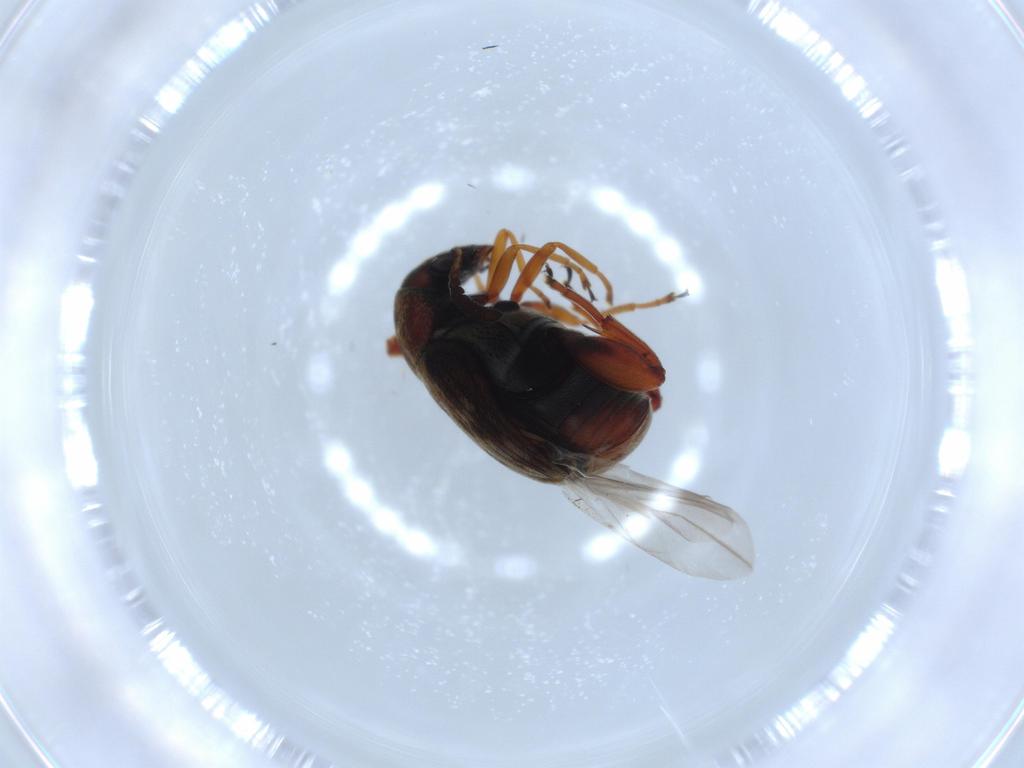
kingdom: Animalia
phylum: Arthropoda
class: Insecta
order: Coleoptera
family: Chrysomelidae
